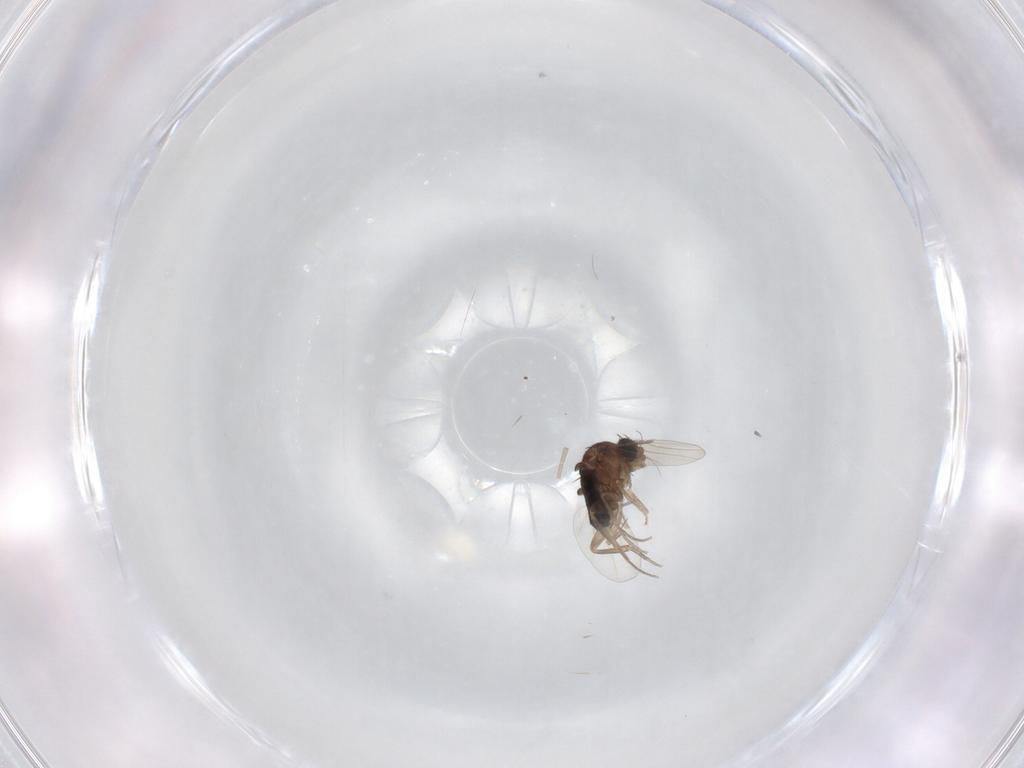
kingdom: Animalia
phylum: Arthropoda
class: Insecta
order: Diptera
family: Phoridae
